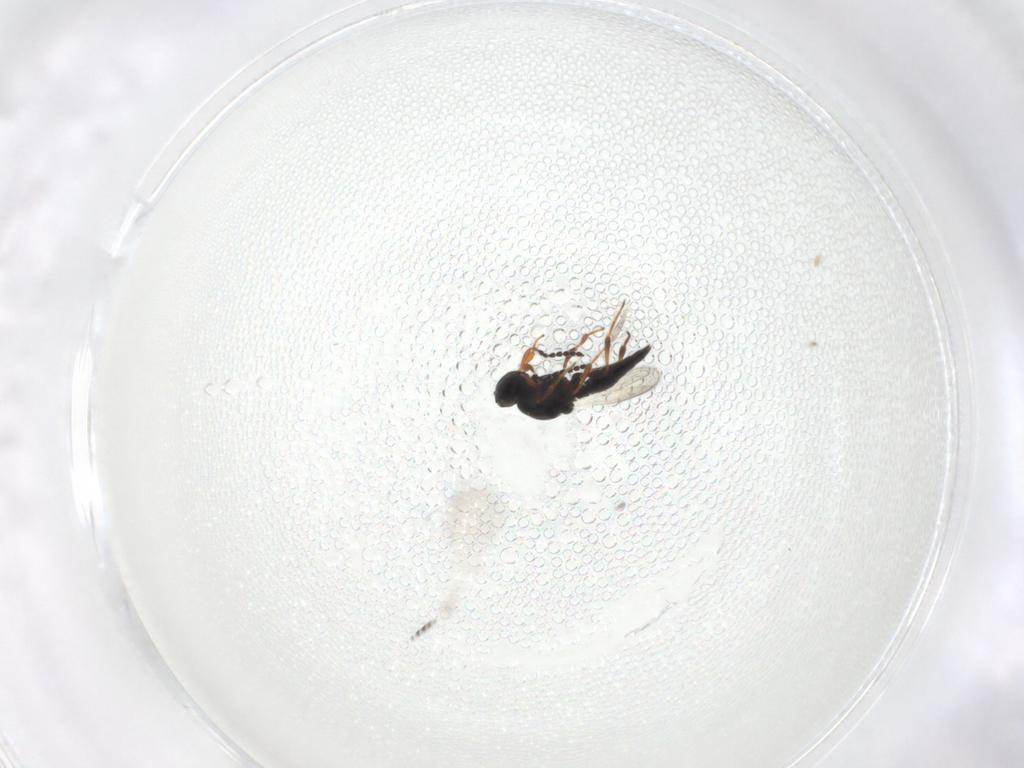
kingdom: Animalia
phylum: Arthropoda
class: Insecta
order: Hymenoptera
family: Platygastridae
